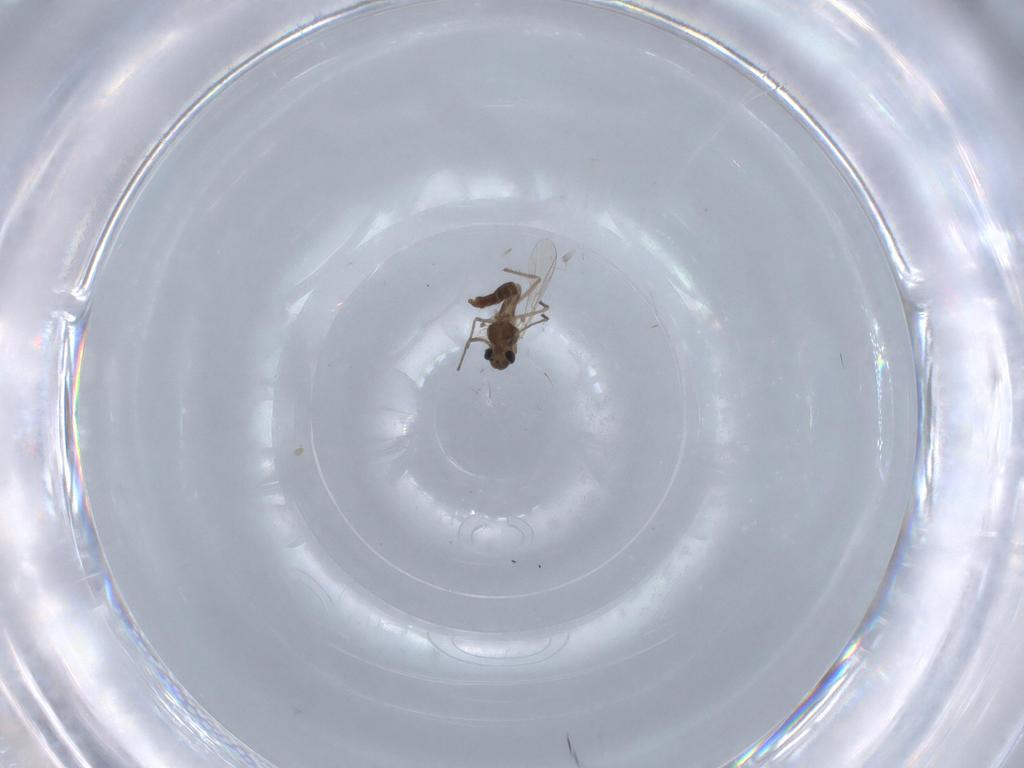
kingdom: Animalia
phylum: Arthropoda
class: Insecta
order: Diptera
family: Chironomidae
